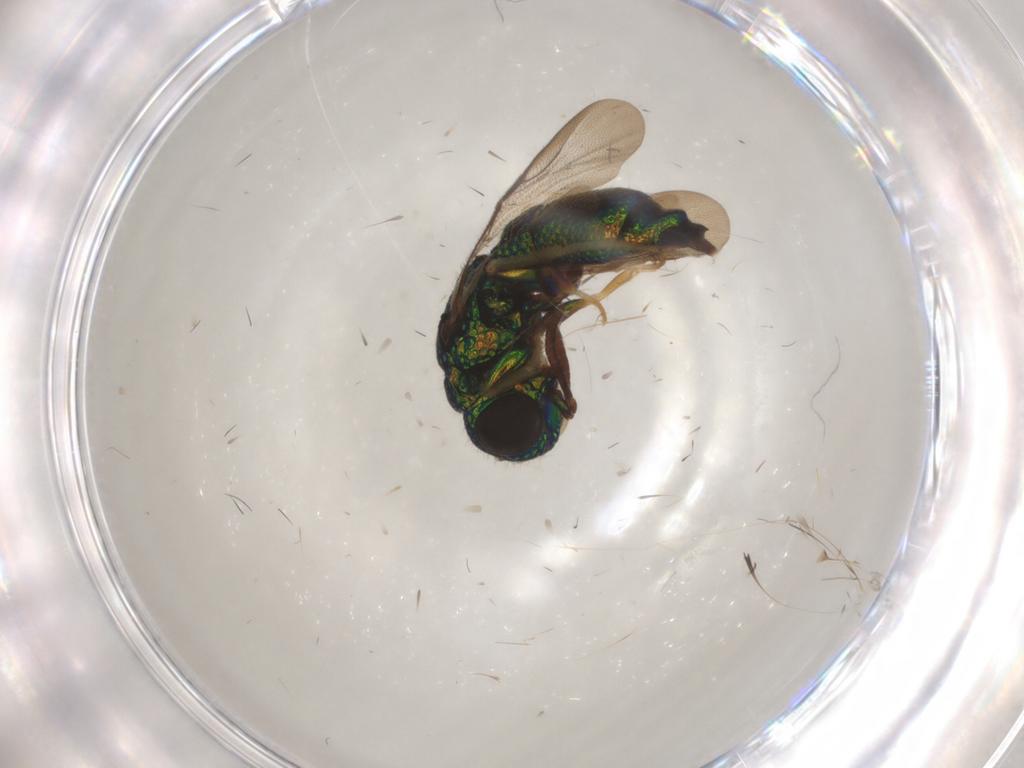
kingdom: Animalia
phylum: Arthropoda
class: Insecta
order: Hymenoptera
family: Chrysididae
